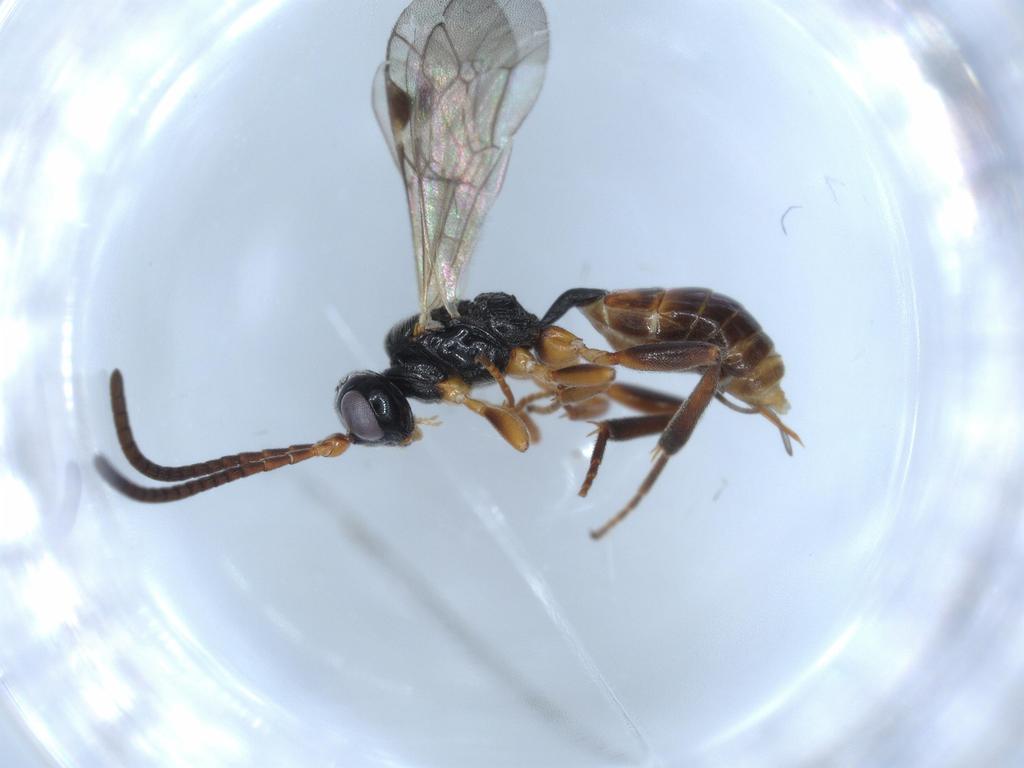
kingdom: Animalia
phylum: Arthropoda
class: Insecta
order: Hymenoptera
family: Ichneumonidae
